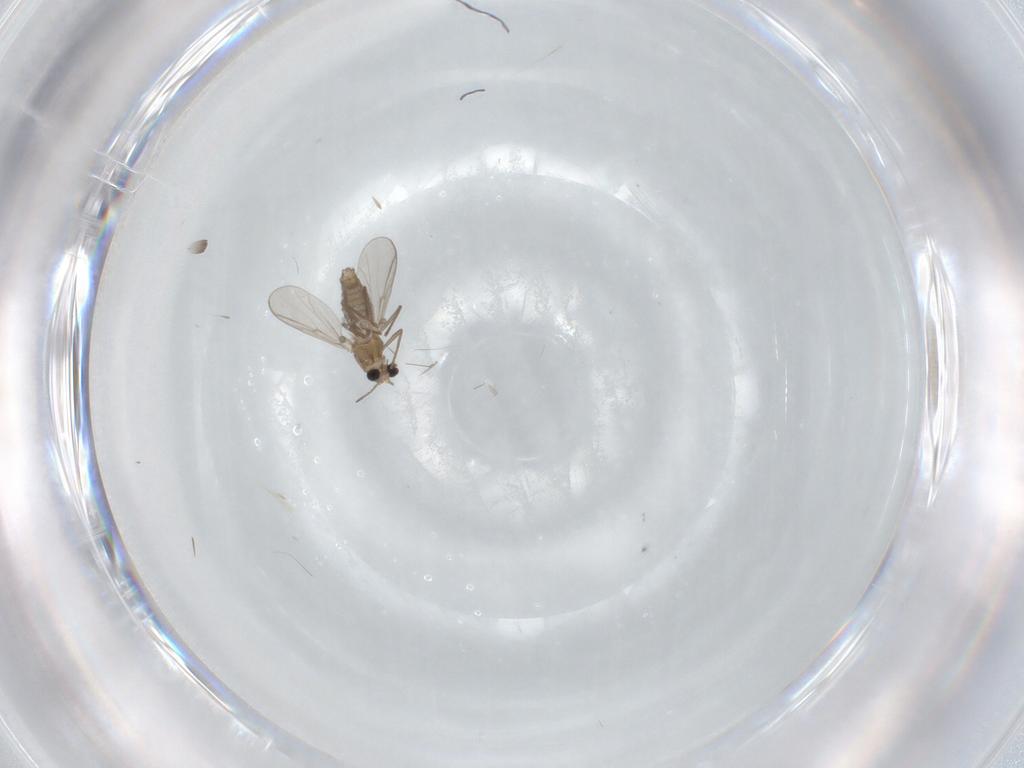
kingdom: Animalia
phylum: Arthropoda
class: Insecta
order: Diptera
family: Chironomidae
